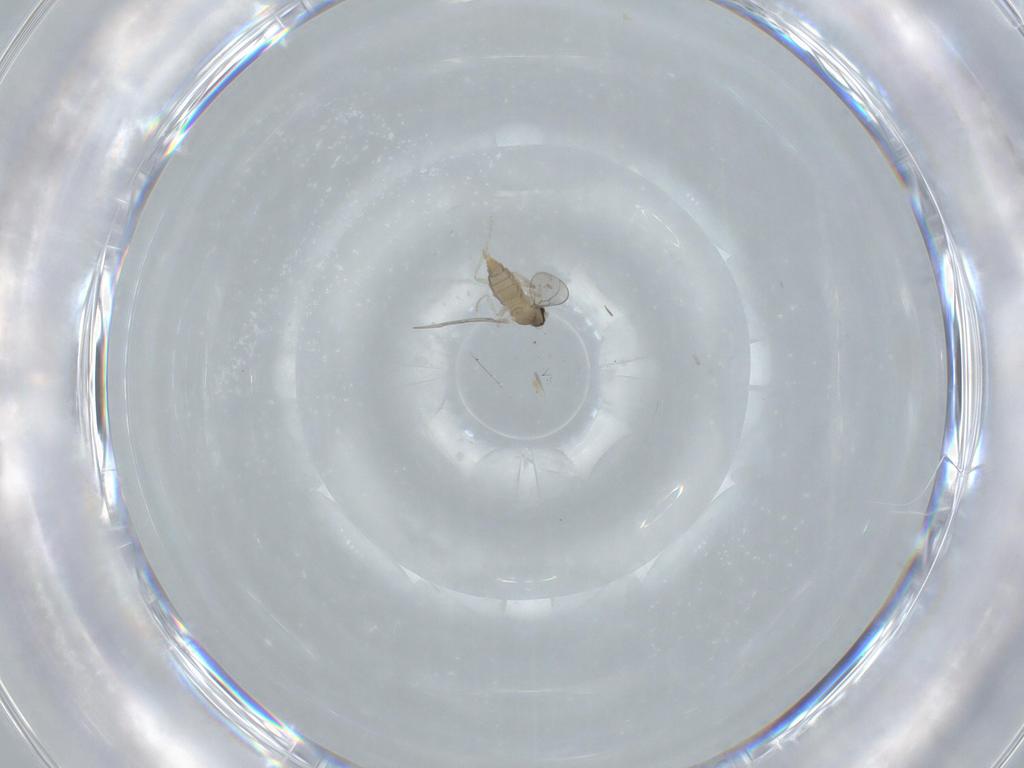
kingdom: Animalia
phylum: Arthropoda
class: Insecta
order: Diptera
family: Cecidomyiidae
